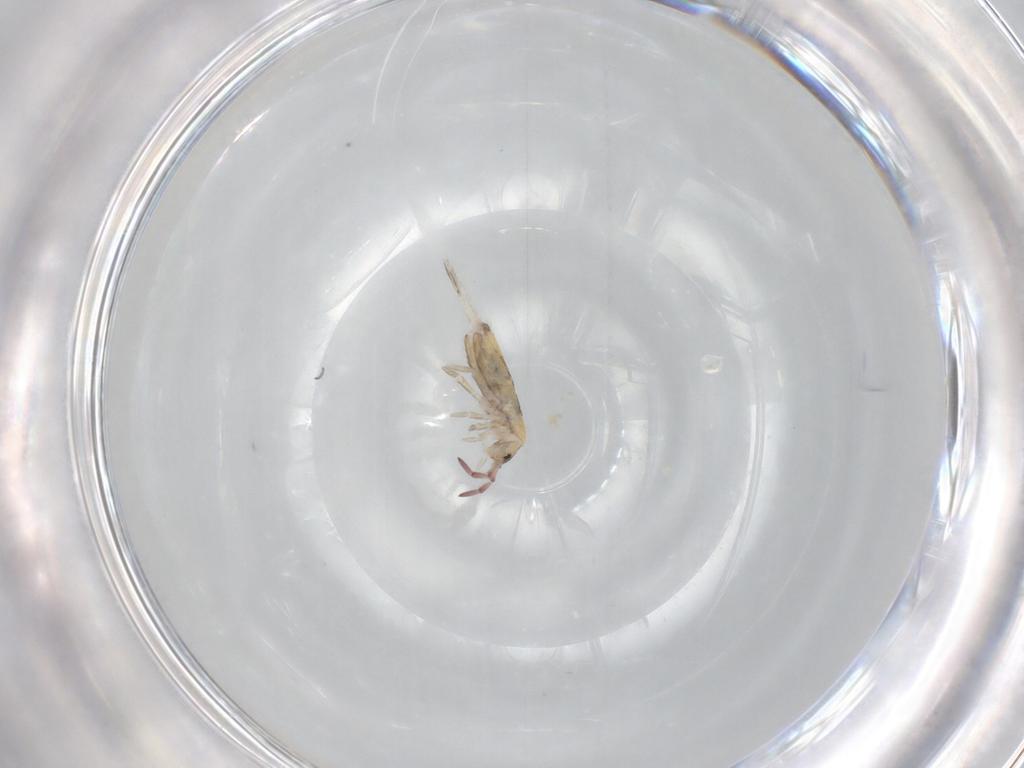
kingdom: Animalia
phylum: Arthropoda
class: Collembola
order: Entomobryomorpha
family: Entomobryidae
